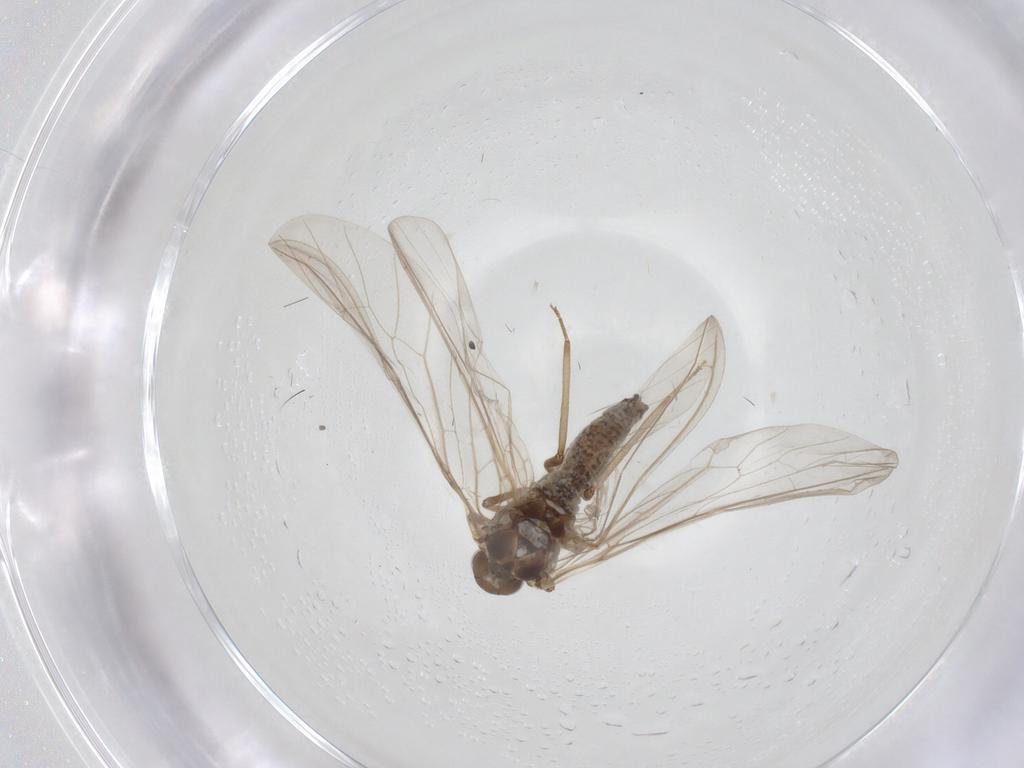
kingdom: Animalia
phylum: Arthropoda
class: Insecta
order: Neuroptera
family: Coniopterygidae
